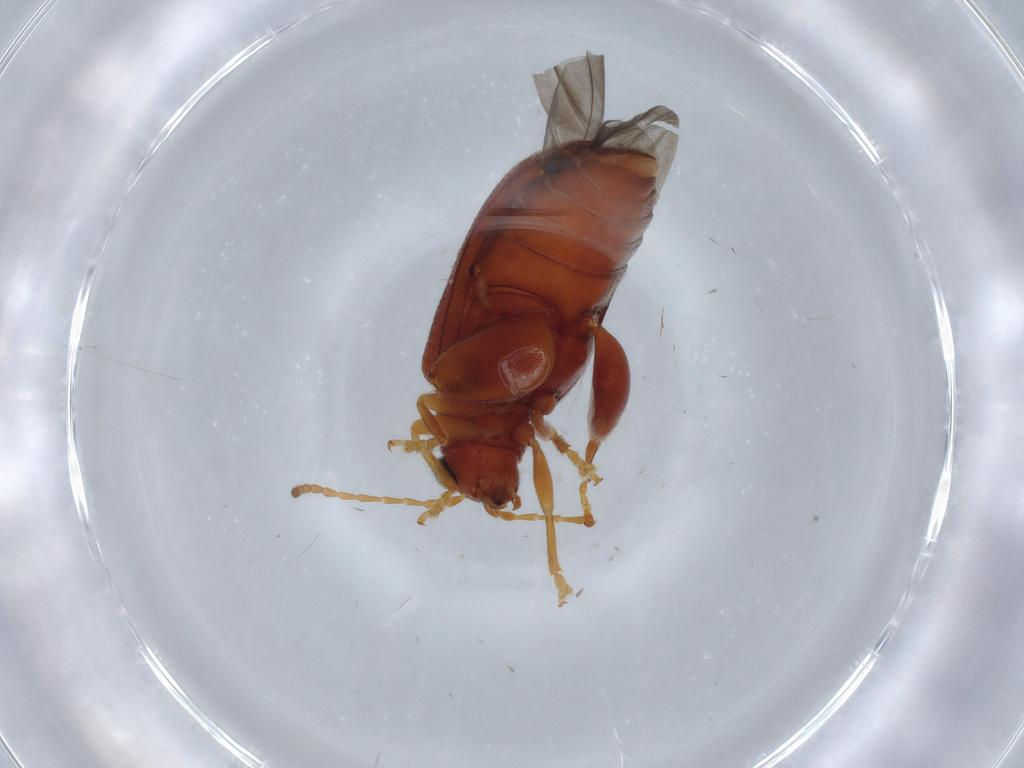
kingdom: Animalia
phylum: Arthropoda
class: Insecta
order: Coleoptera
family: Chrysomelidae
